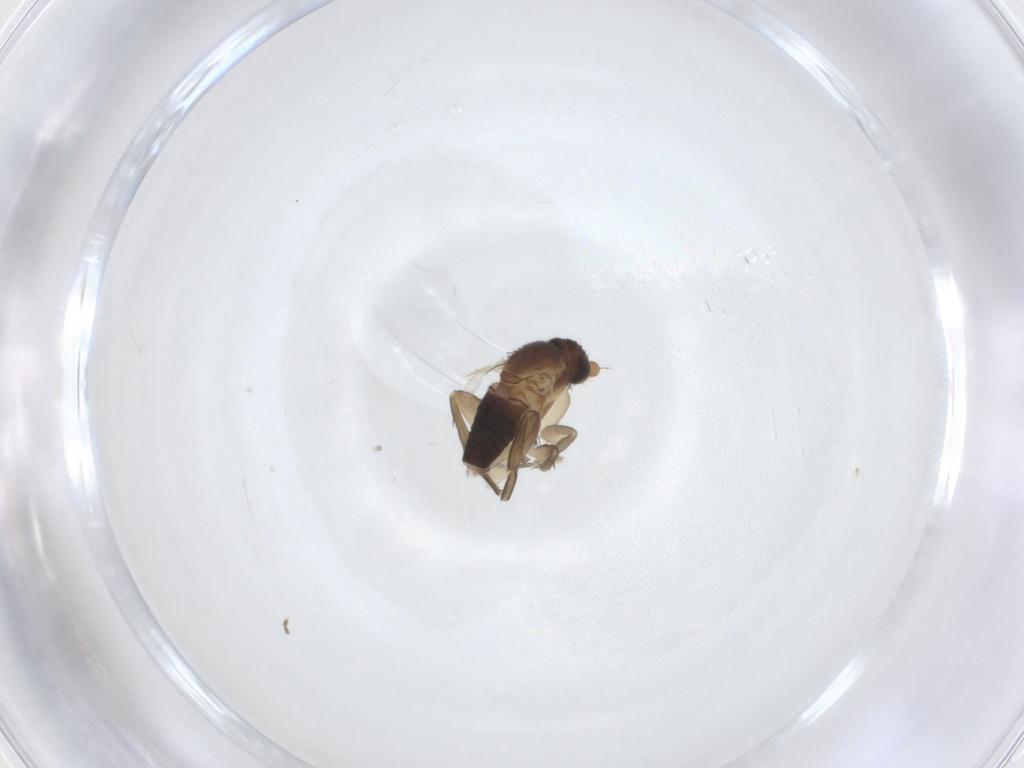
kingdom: Animalia
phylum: Arthropoda
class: Insecta
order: Diptera
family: Phoridae
